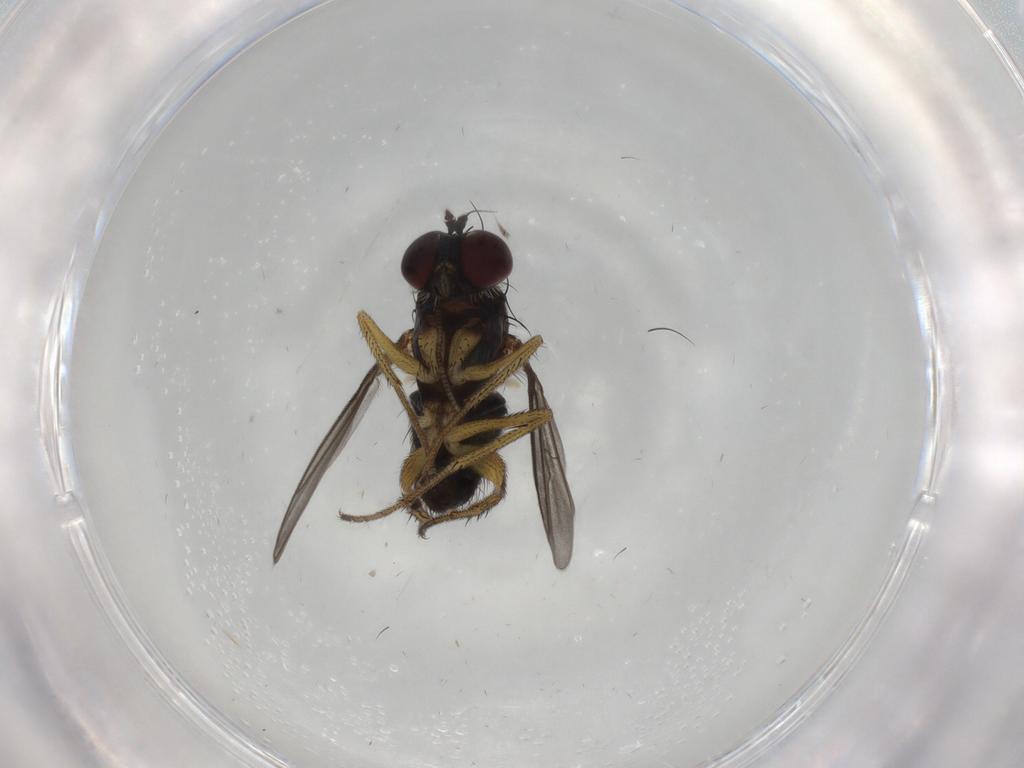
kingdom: Animalia
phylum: Arthropoda
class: Insecta
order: Diptera
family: Dolichopodidae
